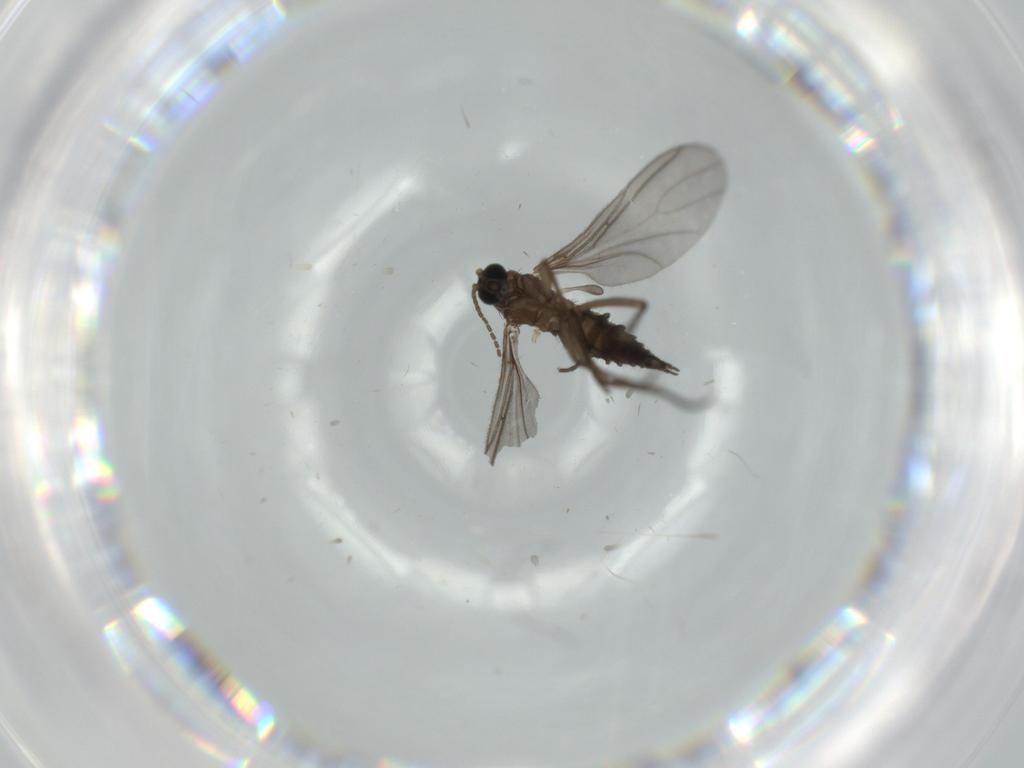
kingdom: Animalia
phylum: Arthropoda
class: Insecta
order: Diptera
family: Sciaridae
